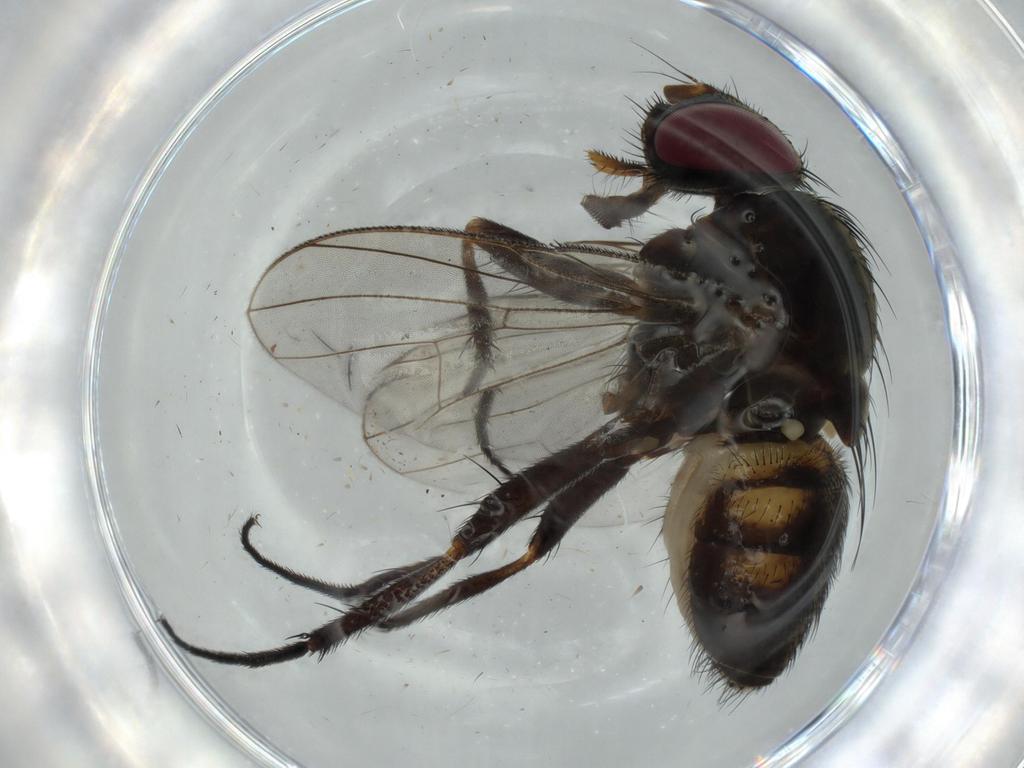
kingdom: Animalia
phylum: Arthropoda
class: Insecta
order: Diptera
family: Fannia
